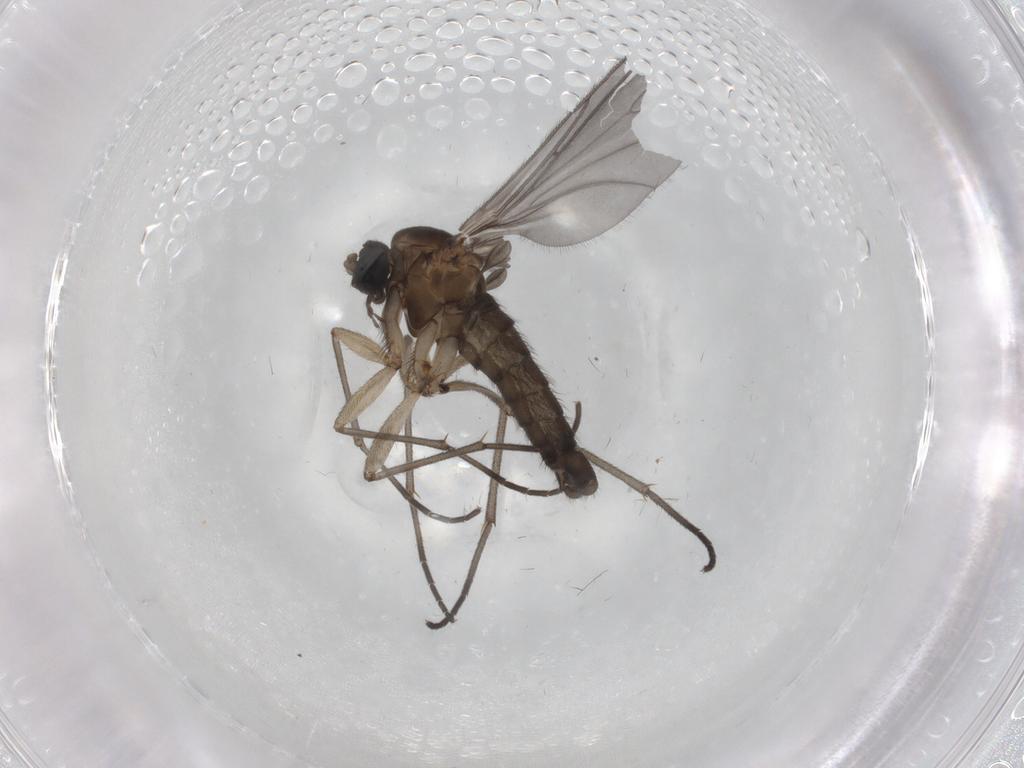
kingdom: Animalia
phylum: Arthropoda
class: Insecta
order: Diptera
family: Sciaridae
